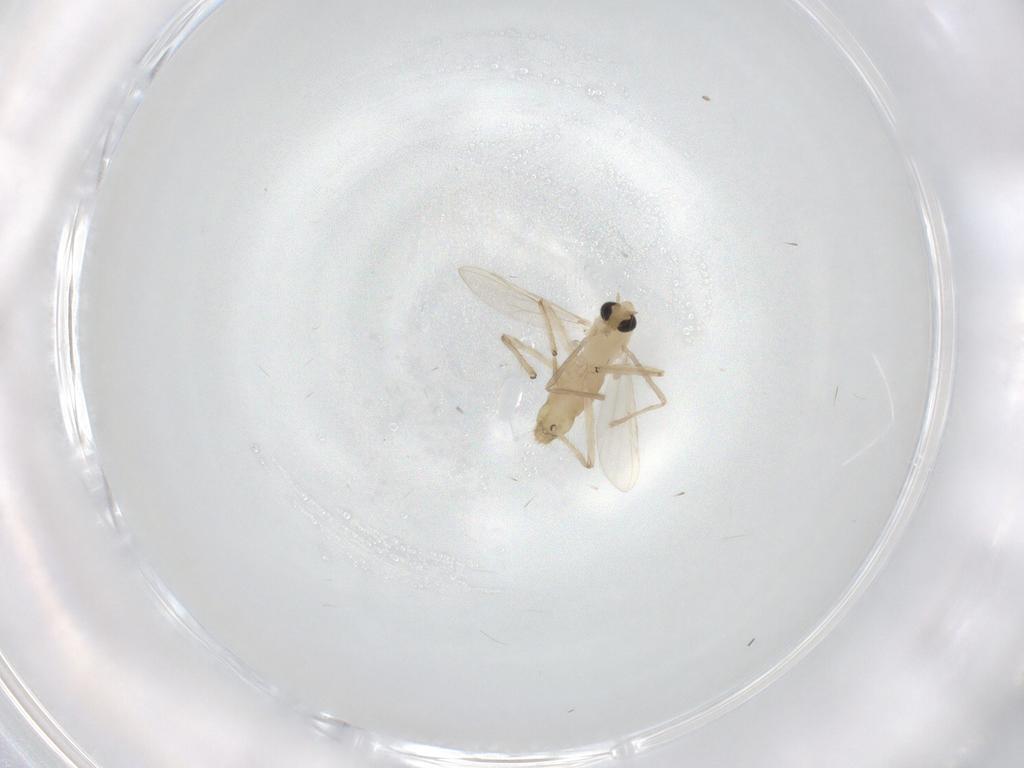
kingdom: Animalia
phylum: Arthropoda
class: Insecta
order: Diptera
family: Chironomidae
